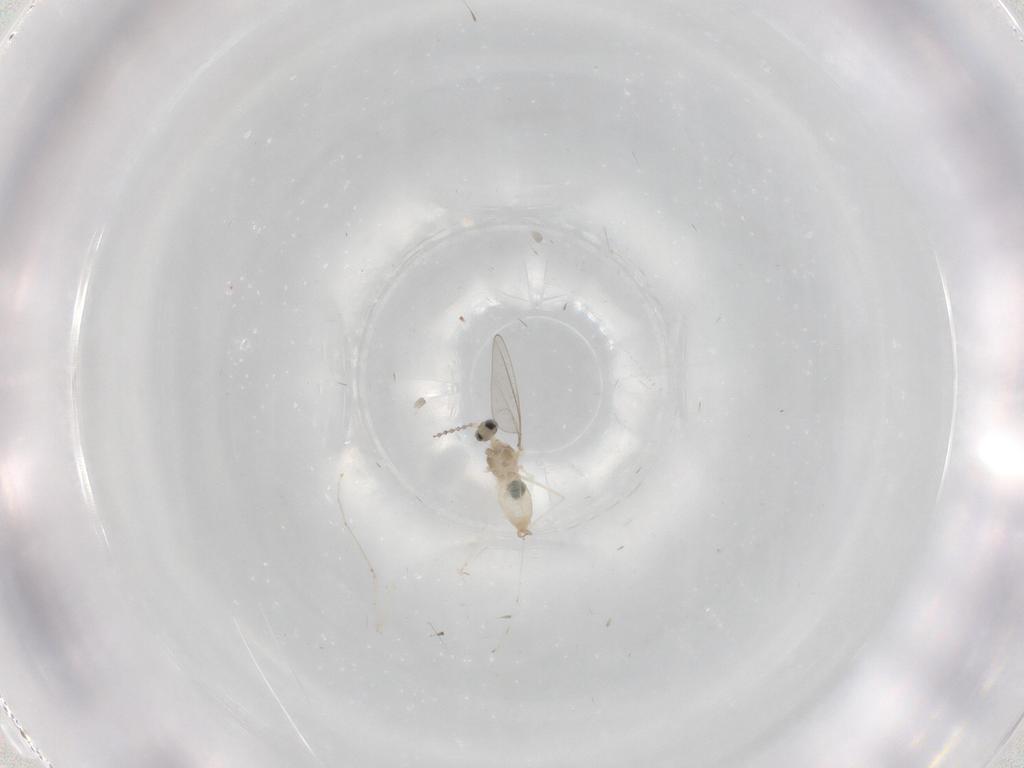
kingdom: Animalia
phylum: Arthropoda
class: Insecta
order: Diptera
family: Cecidomyiidae
